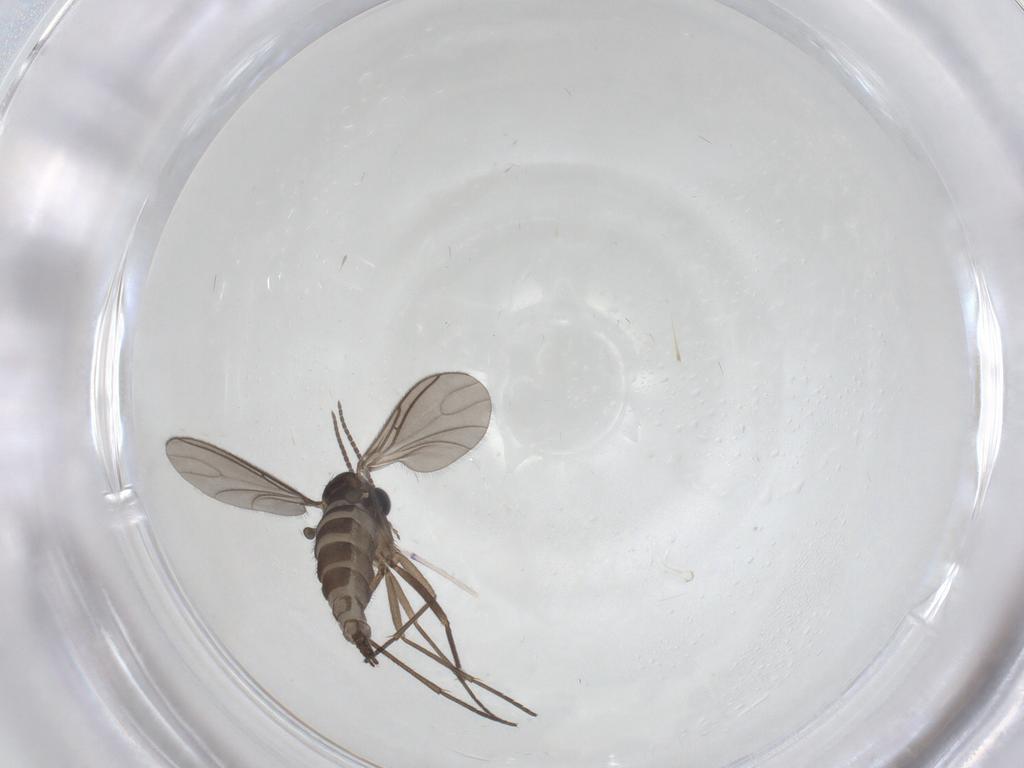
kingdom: Animalia
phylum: Arthropoda
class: Insecta
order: Diptera
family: Sciaridae
